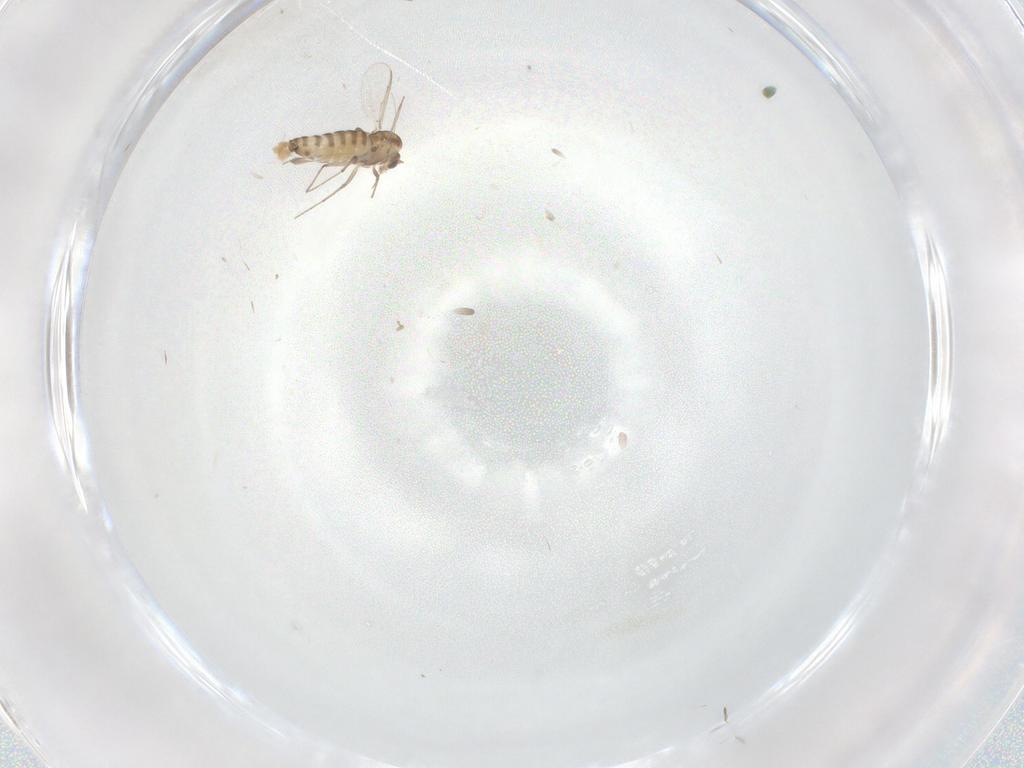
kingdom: Animalia
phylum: Arthropoda
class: Insecta
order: Diptera
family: Chironomidae
